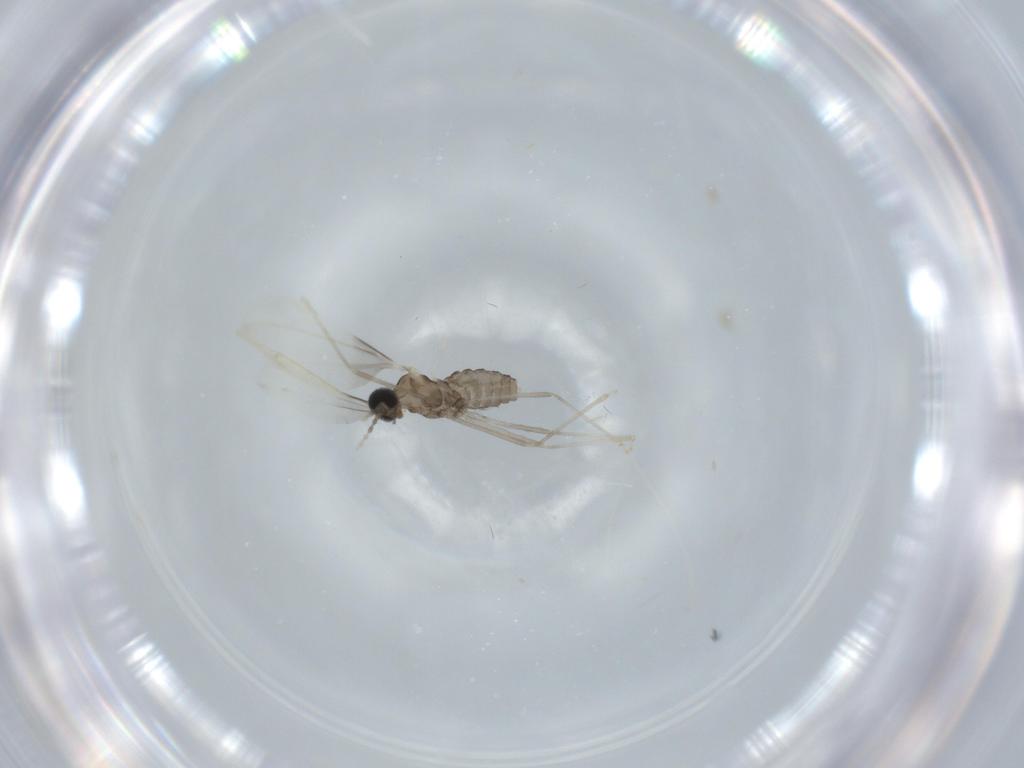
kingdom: Animalia
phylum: Arthropoda
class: Insecta
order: Diptera
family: Cecidomyiidae
